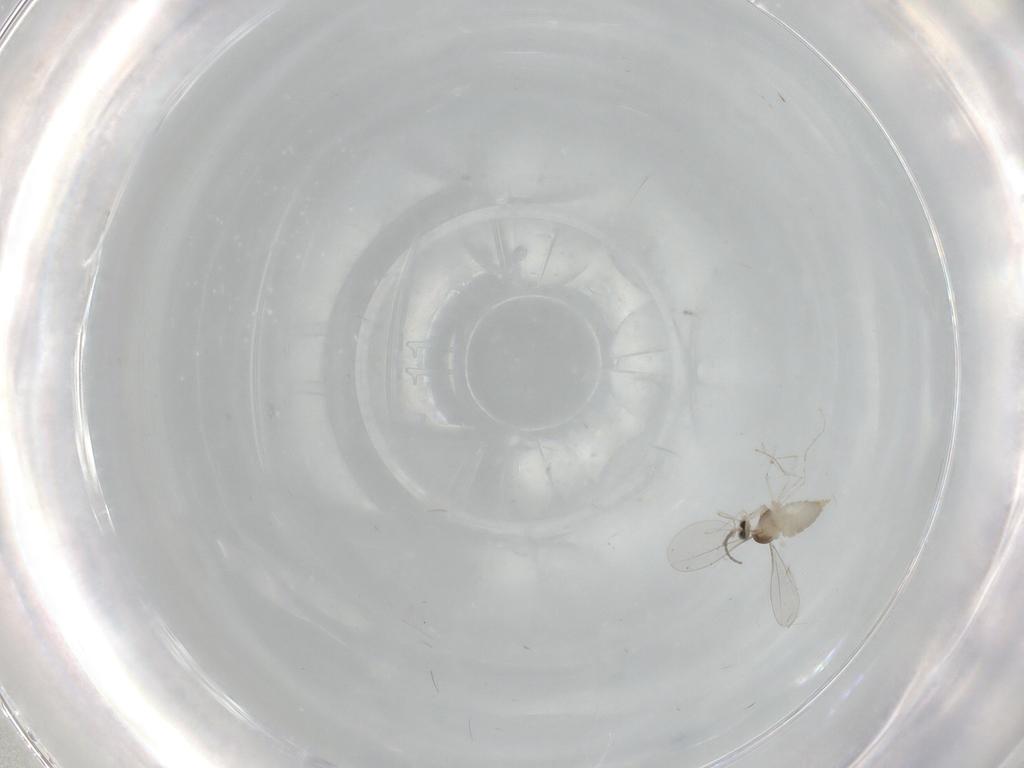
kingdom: Animalia
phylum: Arthropoda
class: Insecta
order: Diptera
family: Cecidomyiidae
